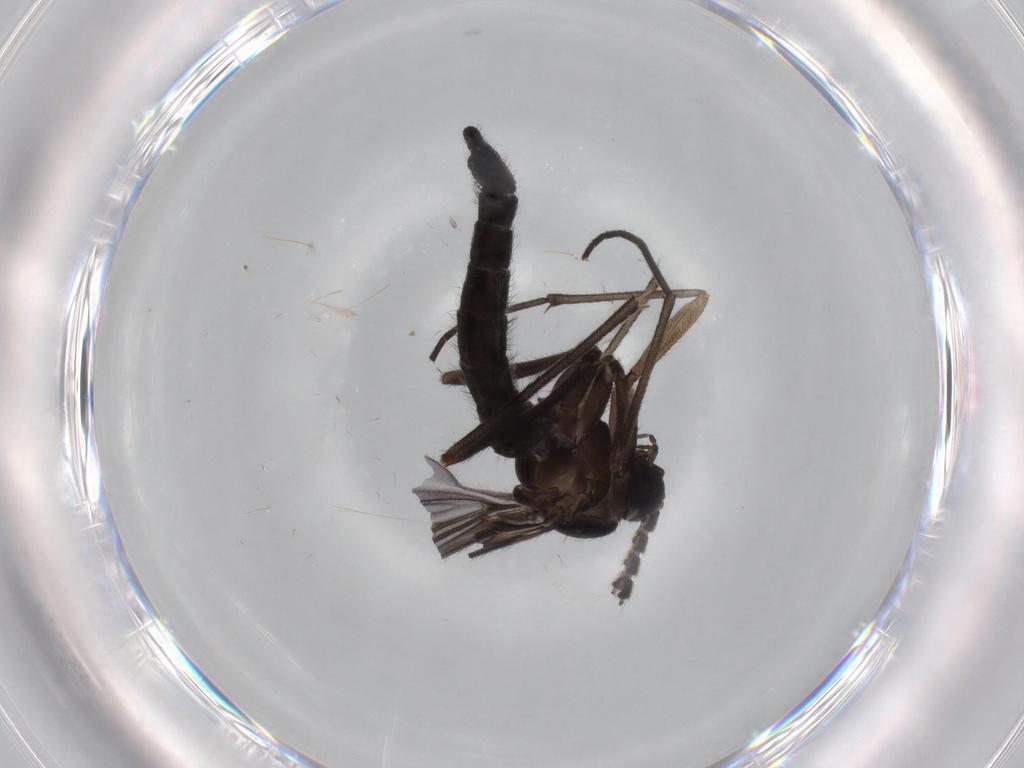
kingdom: Animalia
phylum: Arthropoda
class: Insecta
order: Diptera
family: Sciaridae
